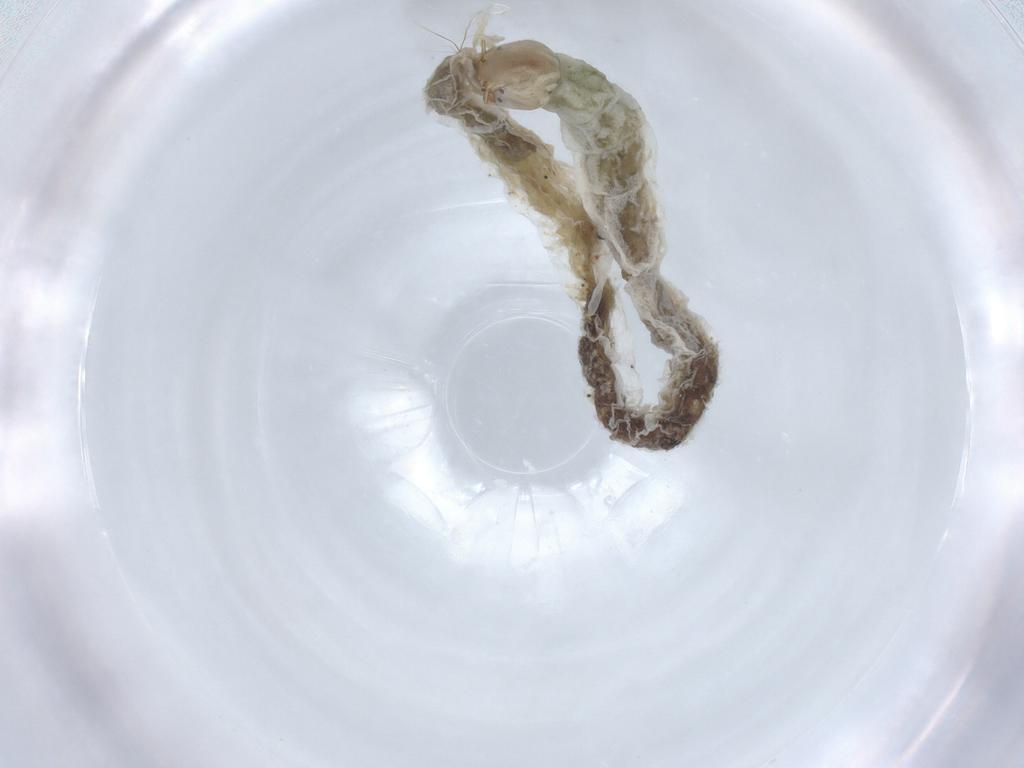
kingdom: Animalia
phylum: Arthropoda
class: Insecta
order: Diptera
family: Chironomidae
